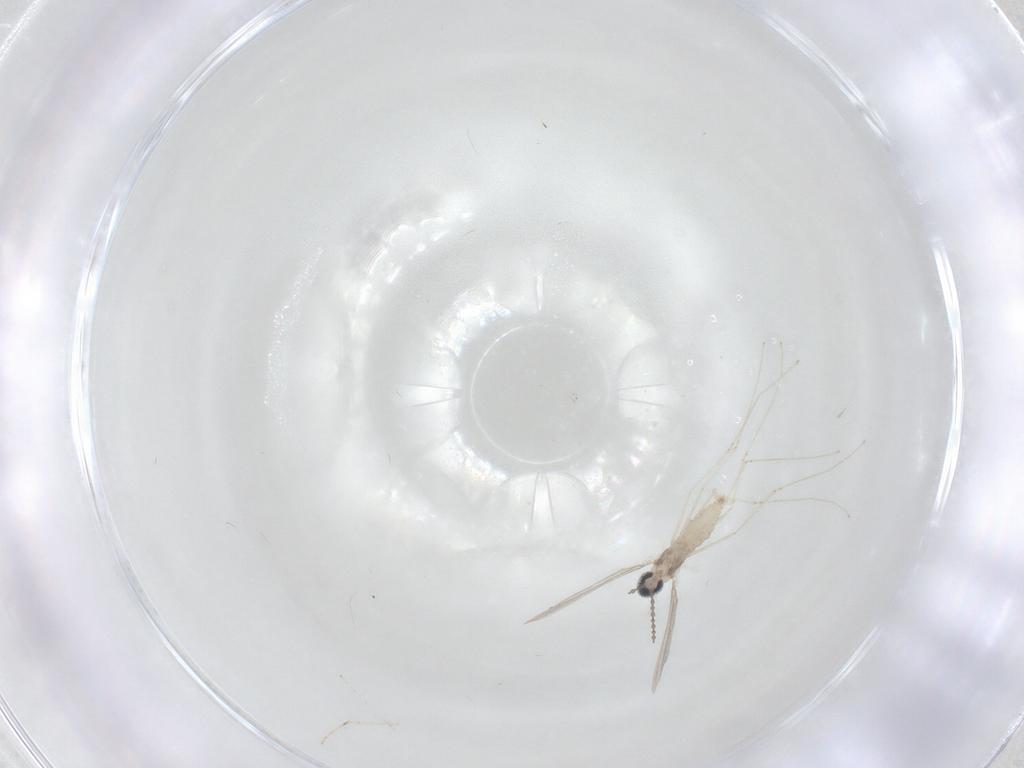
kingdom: Animalia
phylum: Arthropoda
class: Insecta
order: Diptera
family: Cecidomyiidae
